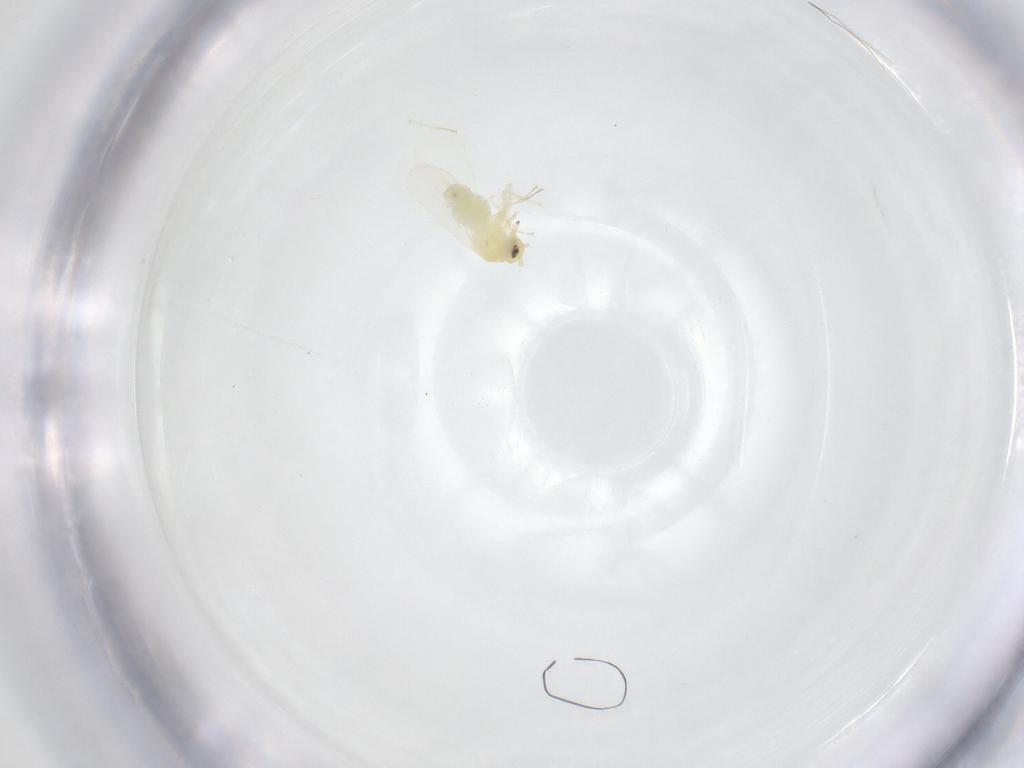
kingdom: Animalia
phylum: Arthropoda
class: Insecta
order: Hemiptera
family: Aleyrodidae
